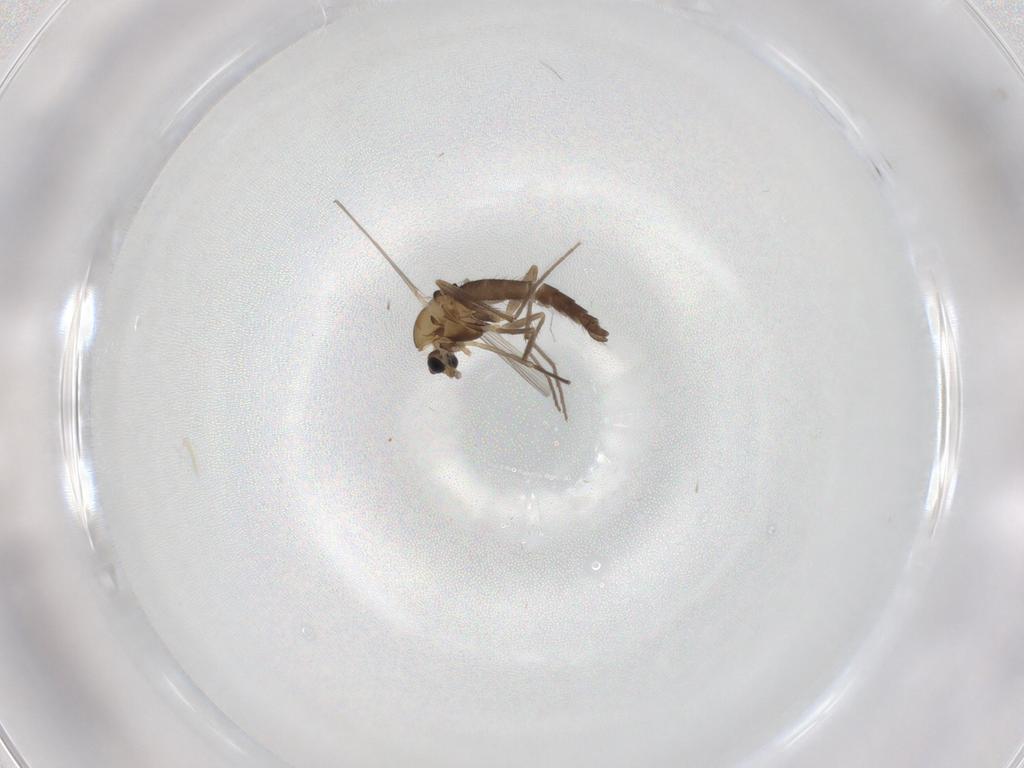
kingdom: Animalia
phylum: Arthropoda
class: Insecta
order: Diptera
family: Chironomidae
